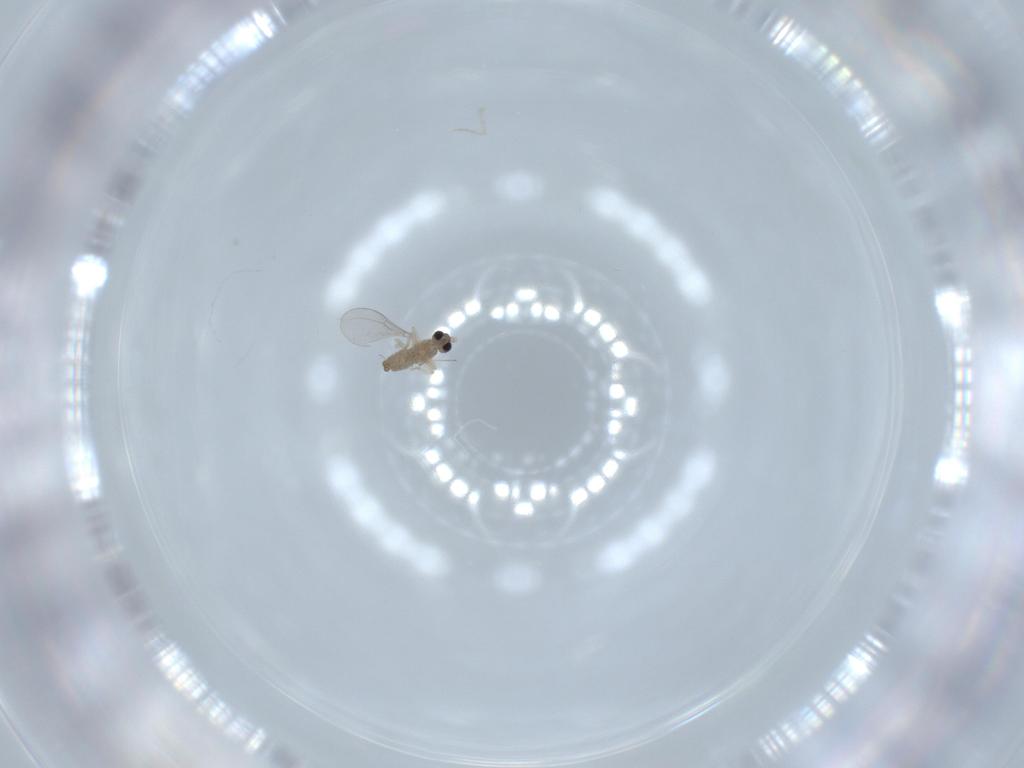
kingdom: Animalia
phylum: Arthropoda
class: Insecta
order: Diptera
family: Cecidomyiidae
